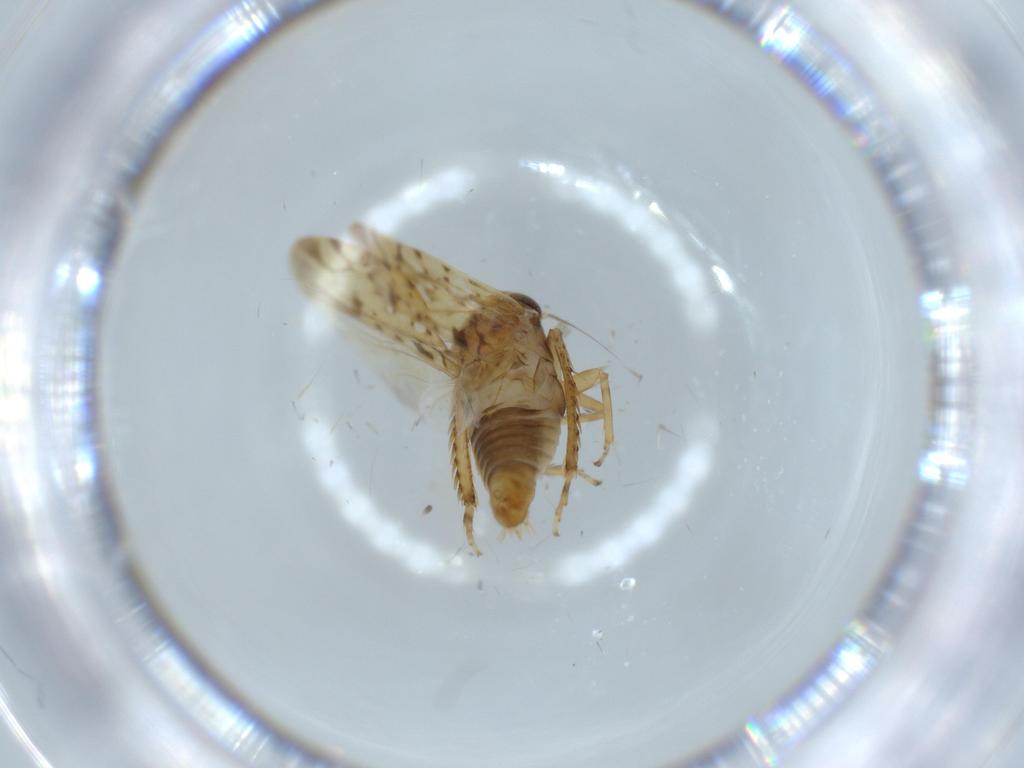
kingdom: Animalia
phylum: Arthropoda
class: Insecta
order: Hemiptera
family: Cicadellidae
